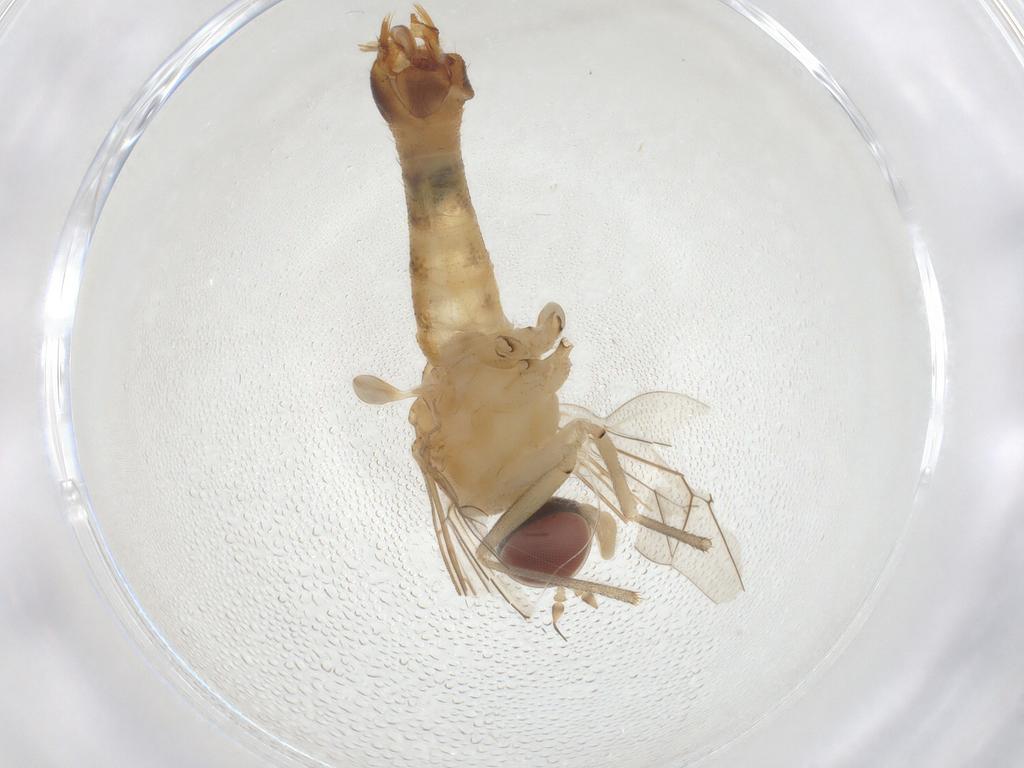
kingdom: Animalia
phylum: Arthropoda
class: Insecta
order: Diptera
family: Apsilocephalidae
